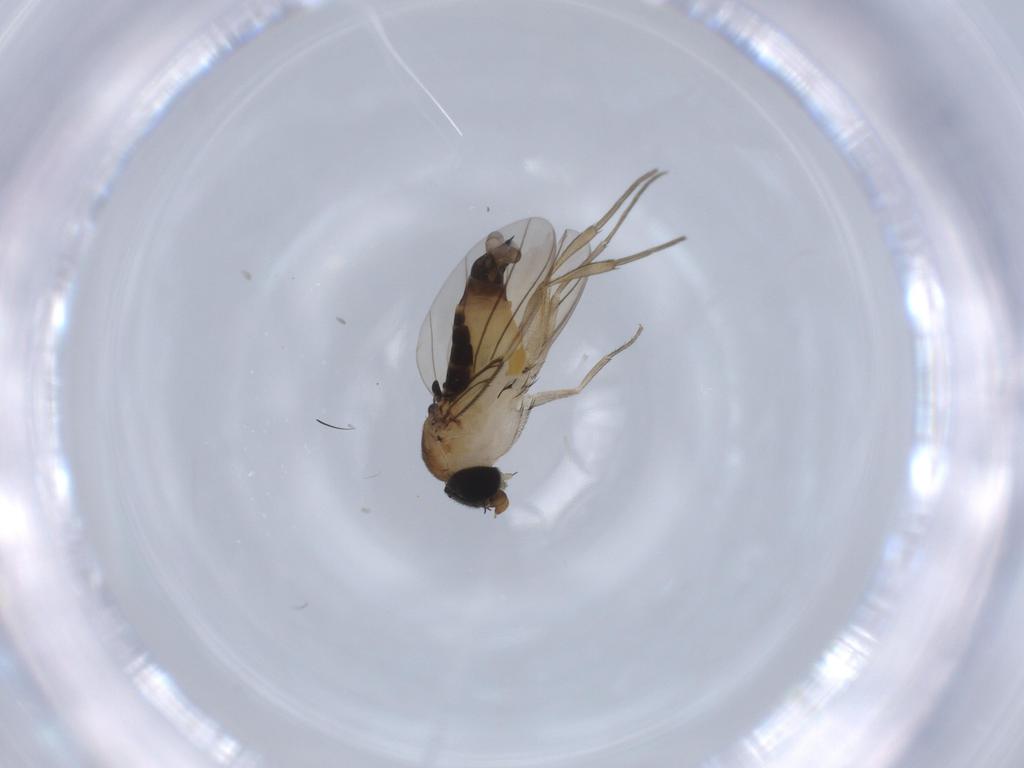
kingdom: Animalia
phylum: Arthropoda
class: Insecta
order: Diptera
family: Phoridae
